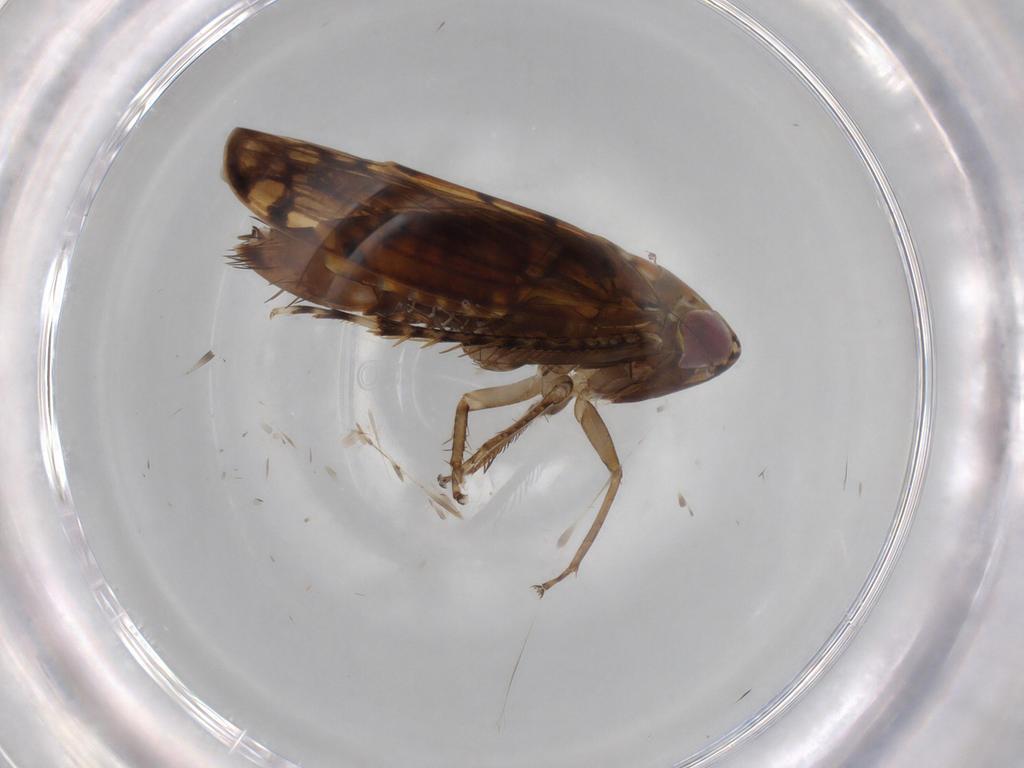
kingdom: Animalia
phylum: Arthropoda
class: Insecta
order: Hemiptera
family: Cicadellidae
